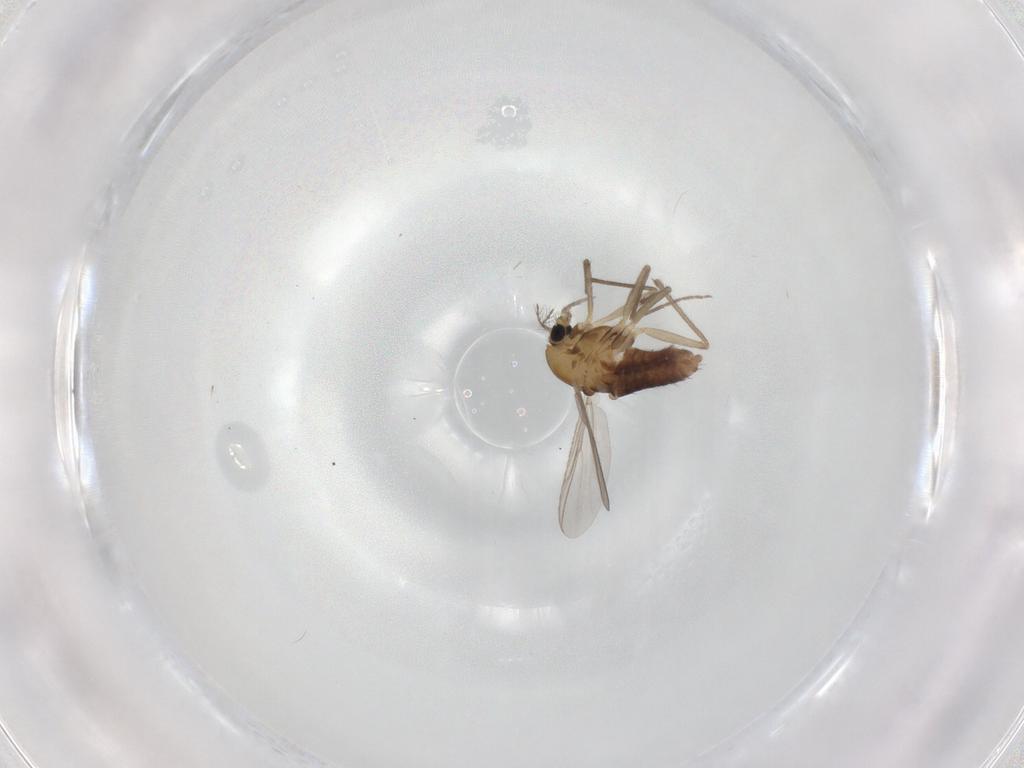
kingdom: Animalia
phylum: Arthropoda
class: Insecta
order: Diptera
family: Chironomidae
